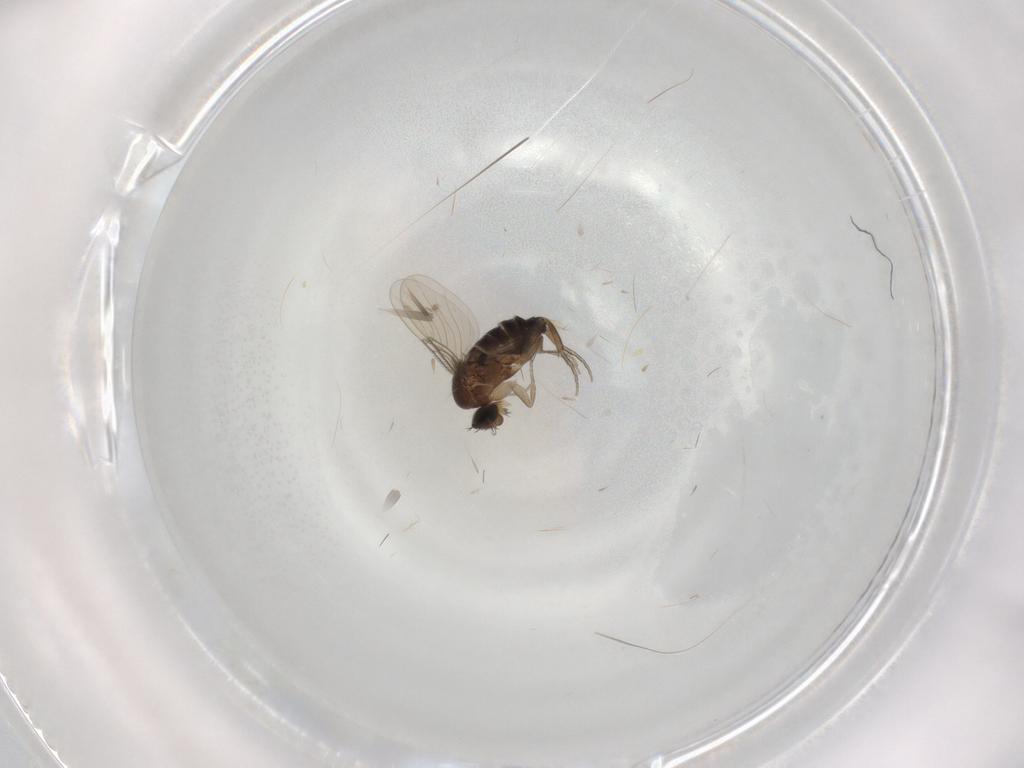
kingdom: Animalia
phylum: Arthropoda
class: Insecta
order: Diptera
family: Phoridae
